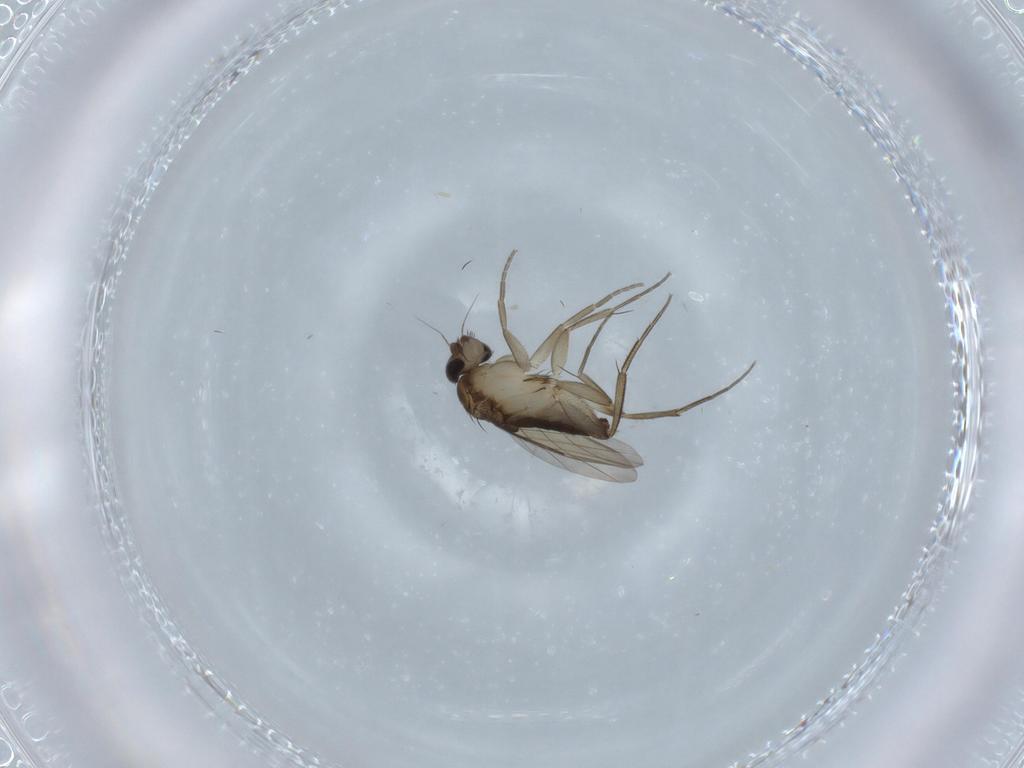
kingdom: Animalia
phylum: Arthropoda
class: Insecta
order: Diptera
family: Phoridae
